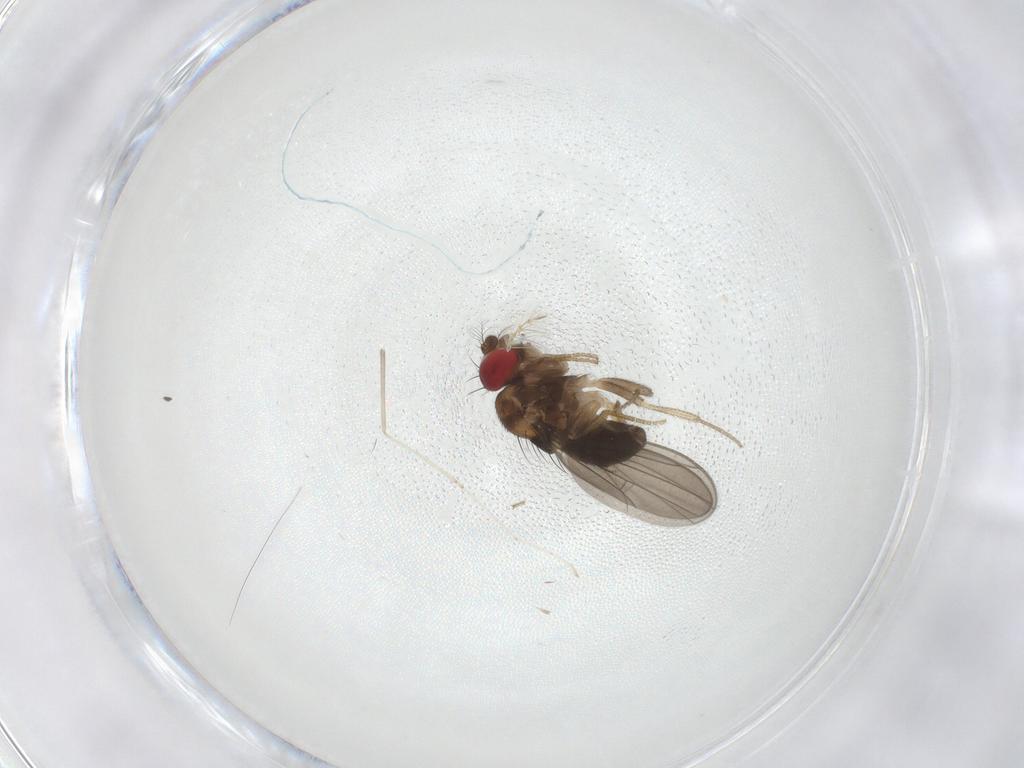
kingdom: Animalia
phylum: Arthropoda
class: Insecta
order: Diptera
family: Drosophilidae
